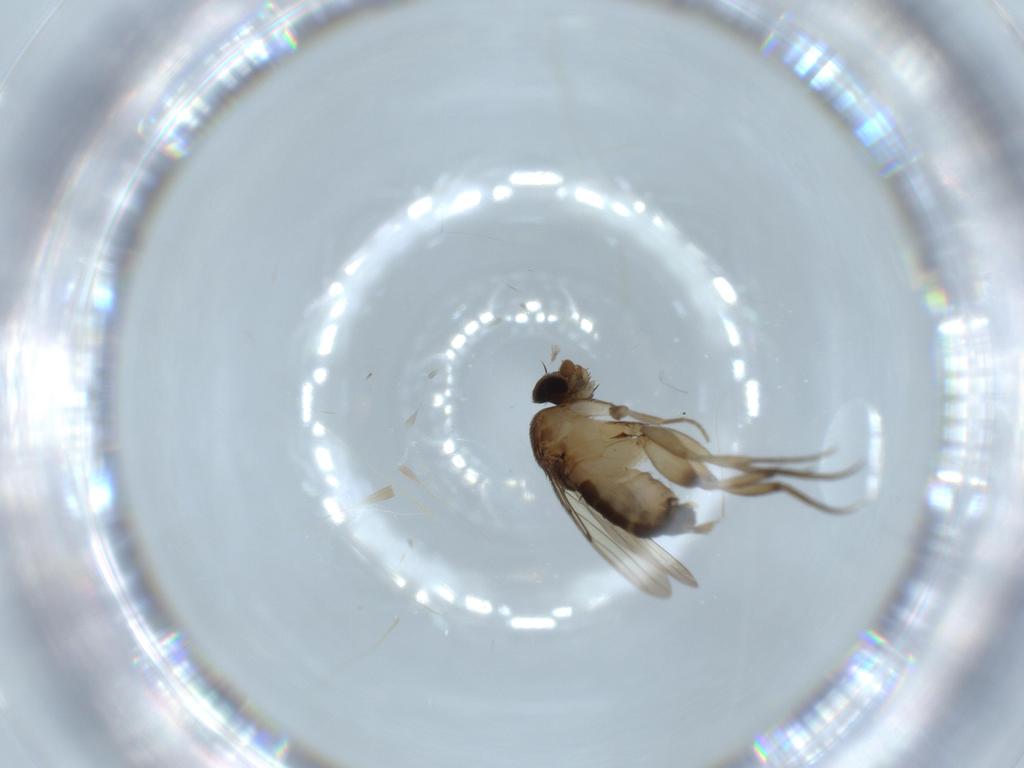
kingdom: Animalia
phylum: Arthropoda
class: Insecta
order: Diptera
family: Phoridae
